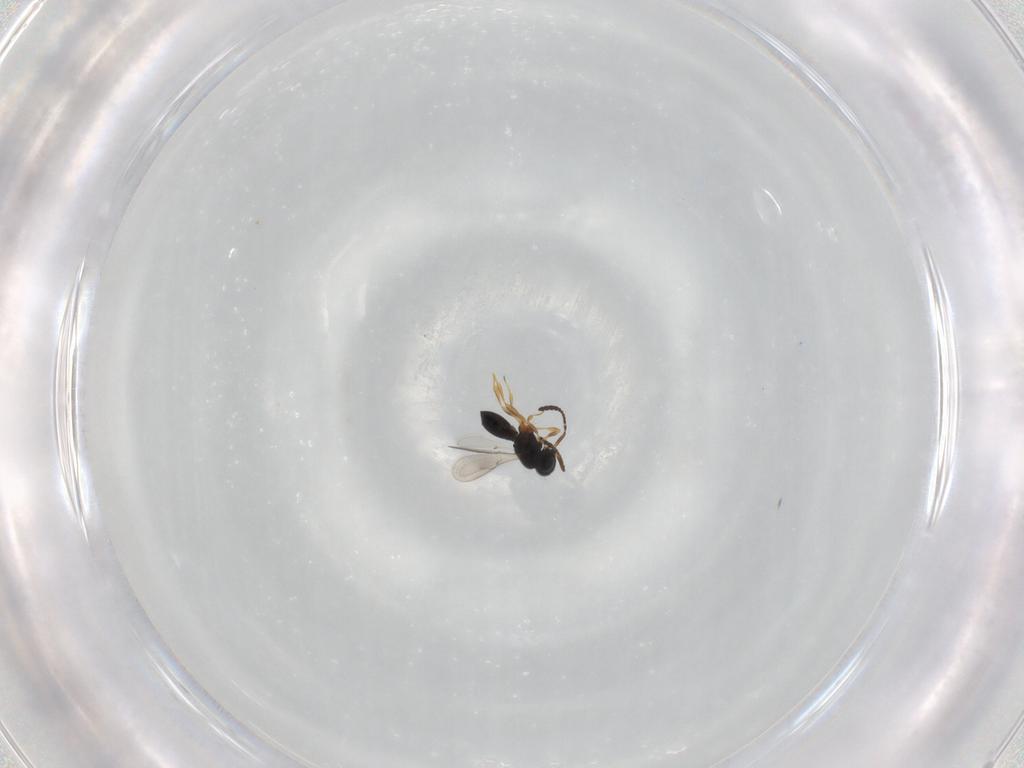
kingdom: Animalia
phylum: Arthropoda
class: Insecta
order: Hymenoptera
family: Scelionidae
